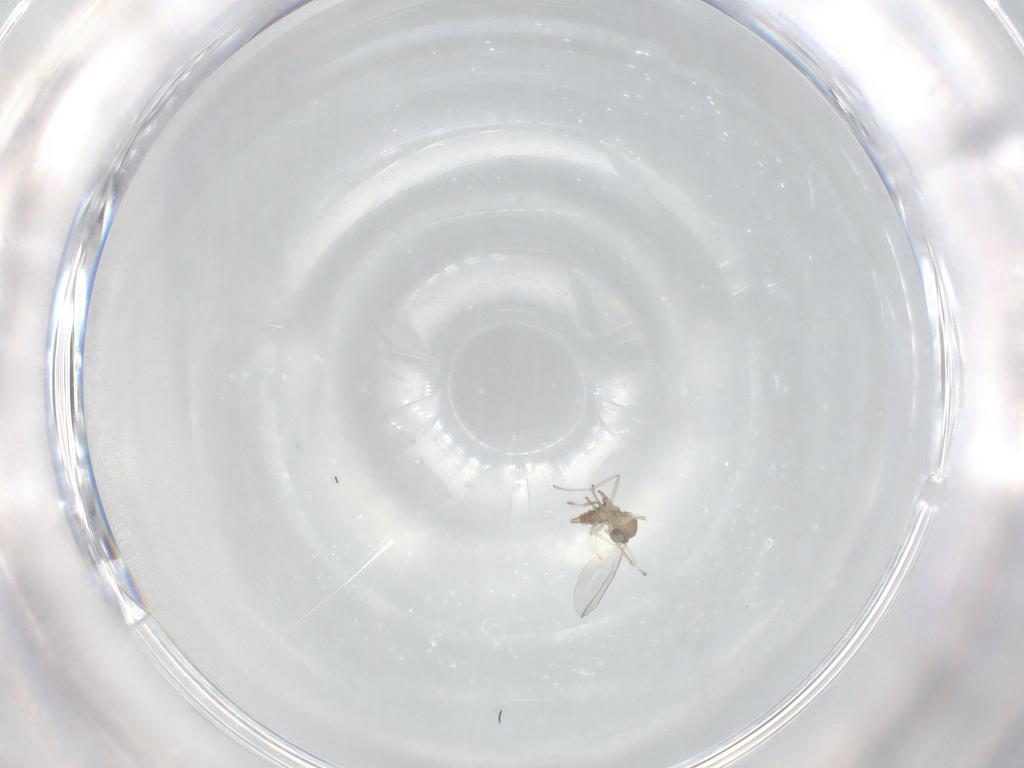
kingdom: Animalia
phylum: Arthropoda
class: Insecta
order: Diptera
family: Cecidomyiidae
